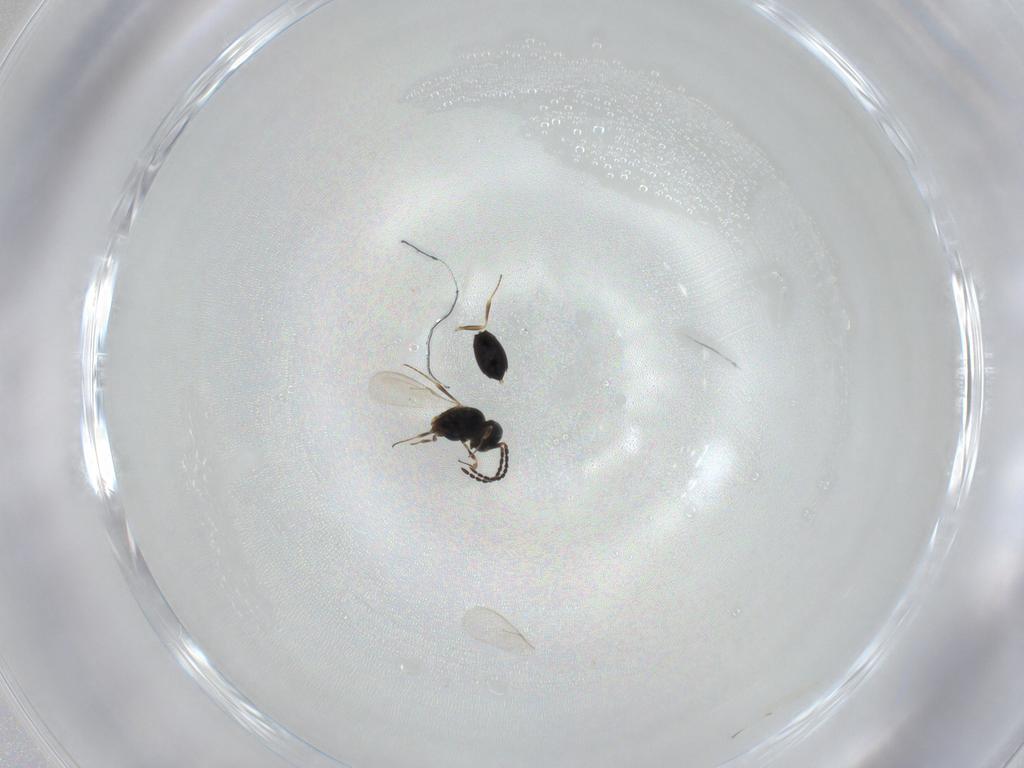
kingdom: Animalia
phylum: Arthropoda
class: Insecta
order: Hymenoptera
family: Scelionidae
